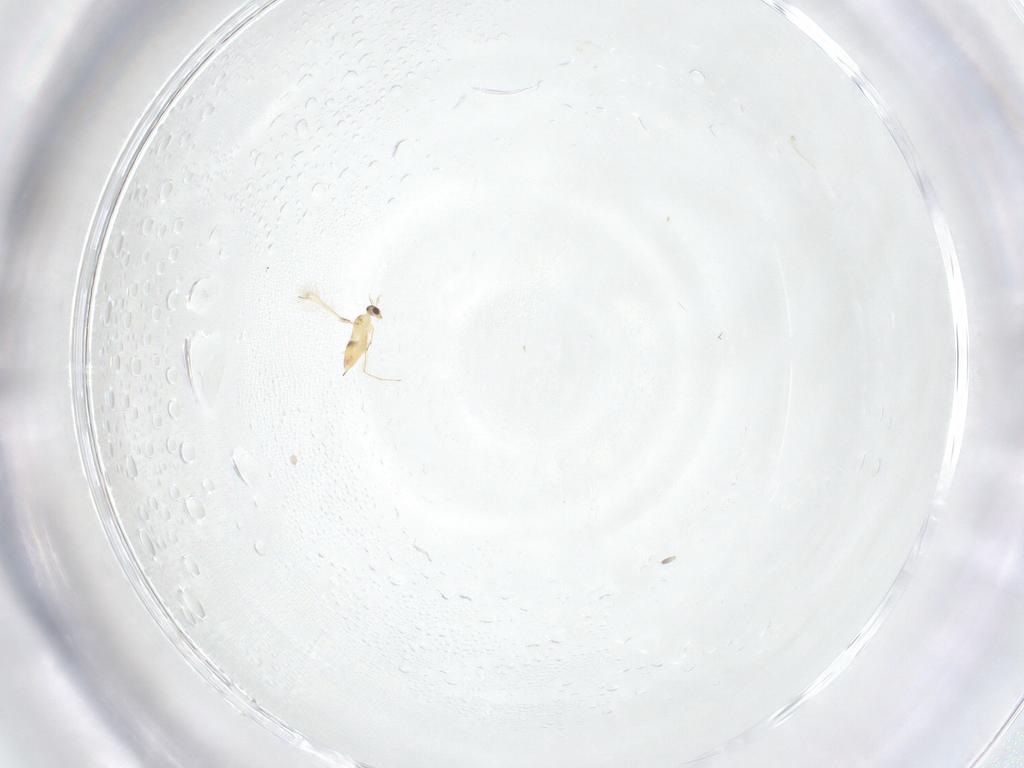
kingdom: Animalia
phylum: Arthropoda
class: Insecta
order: Hymenoptera
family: Mymaridae
